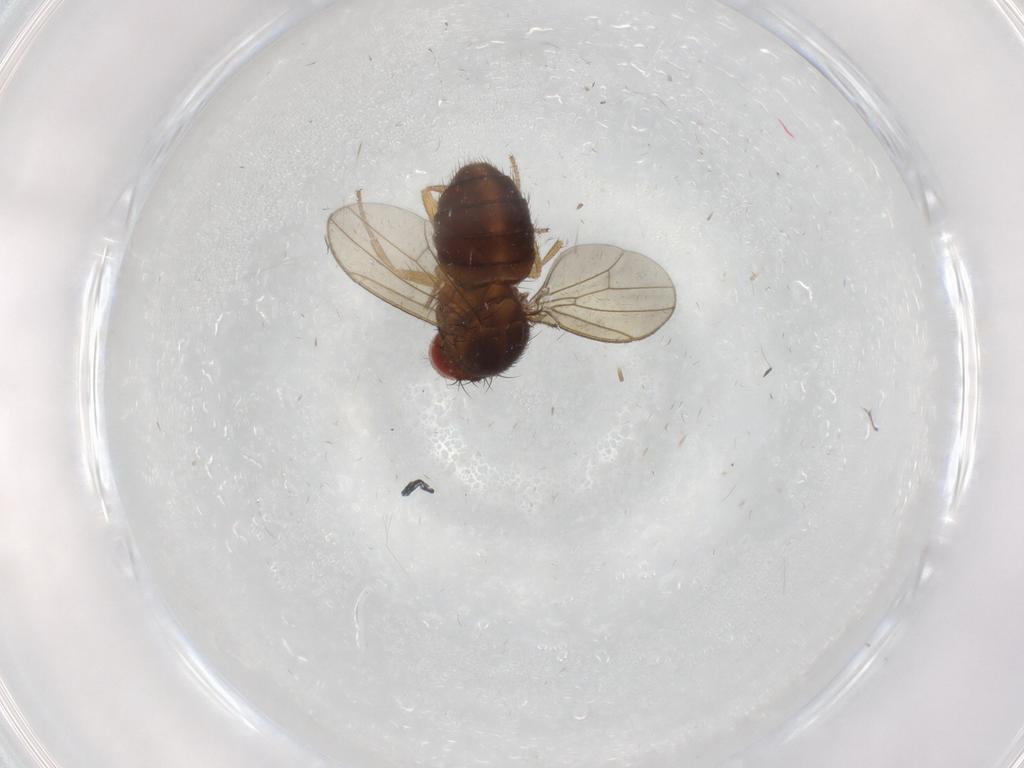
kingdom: Animalia
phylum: Arthropoda
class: Insecta
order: Diptera
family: Drosophilidae
